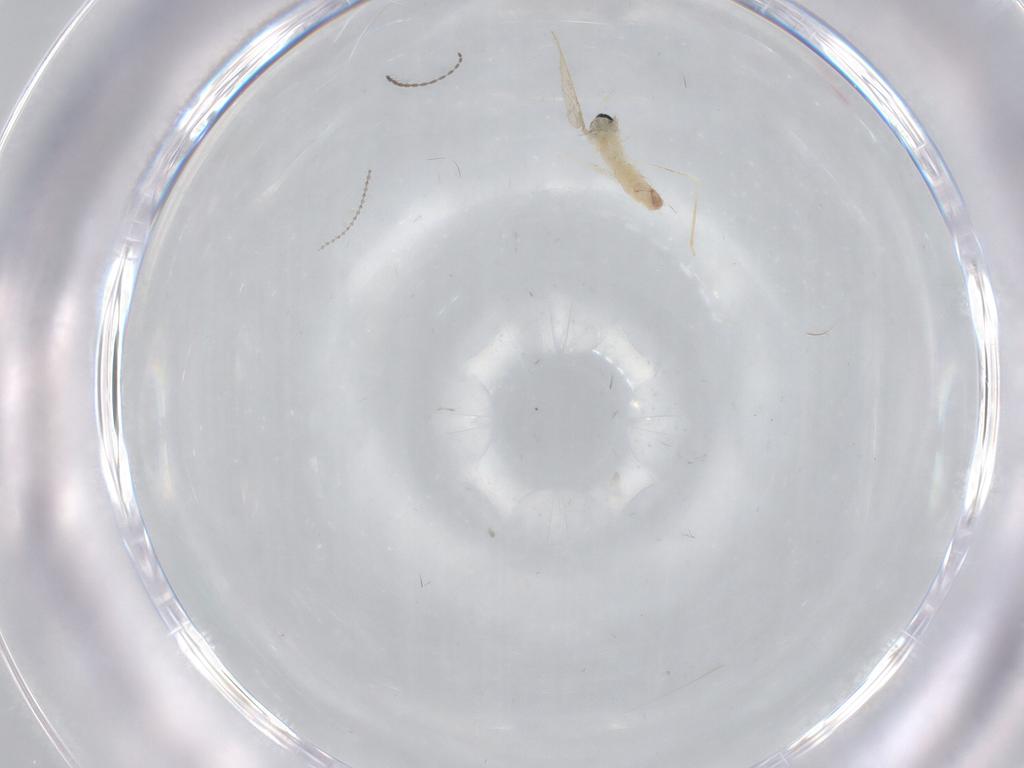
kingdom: Animalia
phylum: Arthropoda
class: Insecta
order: Diptera
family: Cecidomyiidae
